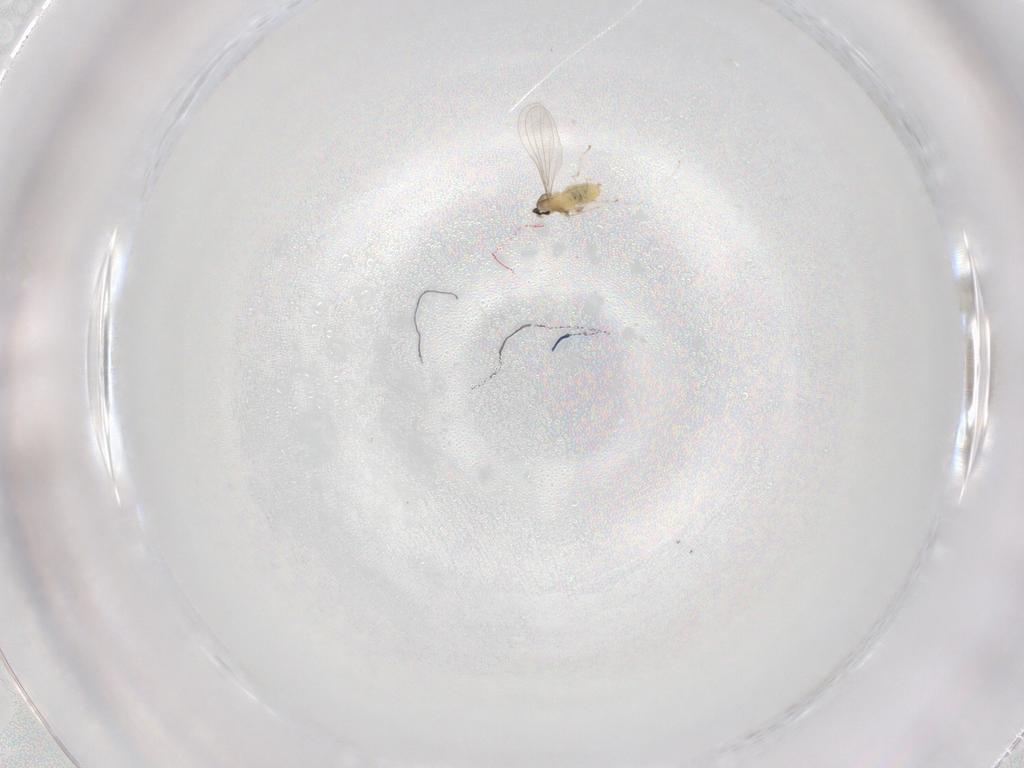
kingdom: Animalia
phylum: Arthropoda
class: Insecta
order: Diptera
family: Cecidomyiidae
